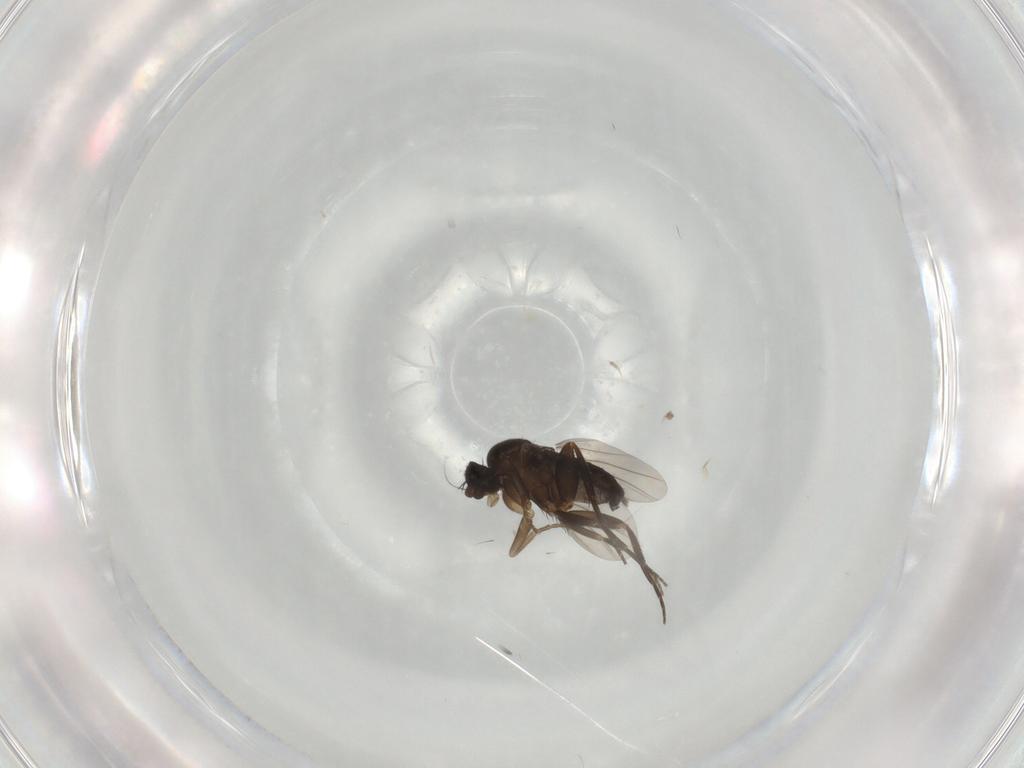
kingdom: Animalia
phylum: Arthropoda
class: Insecta
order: Diptera
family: Phoridae
